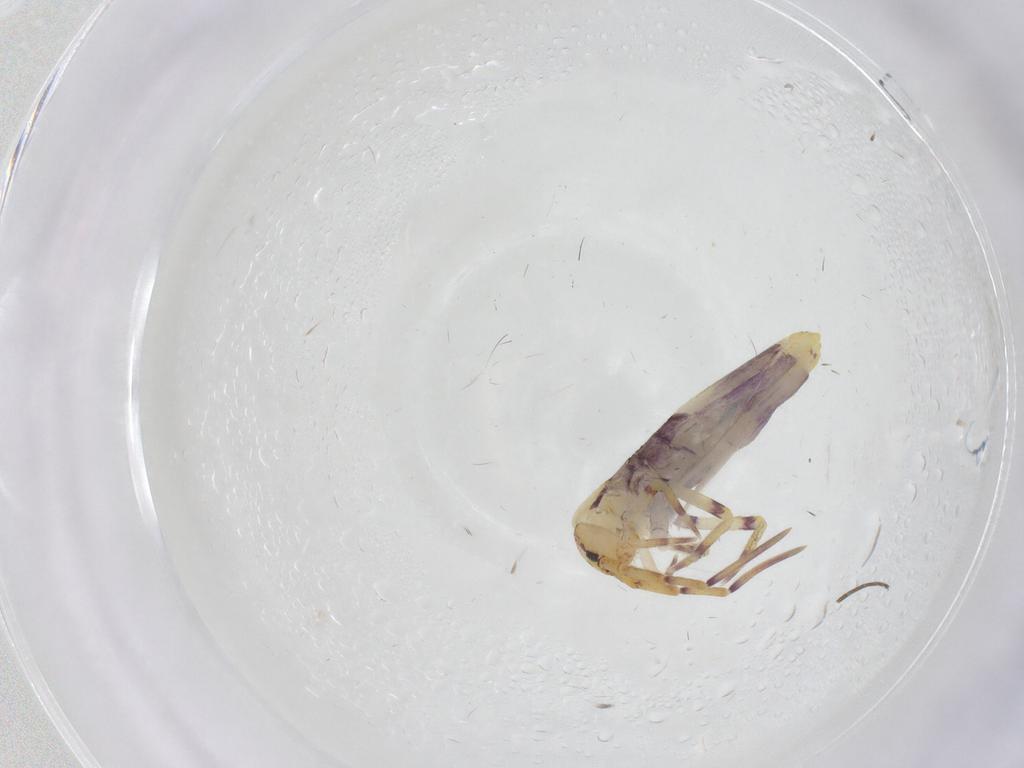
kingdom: Animalia
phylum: Arthropoda
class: Collembola
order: Entomobryomorpha
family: Entomobryidae
